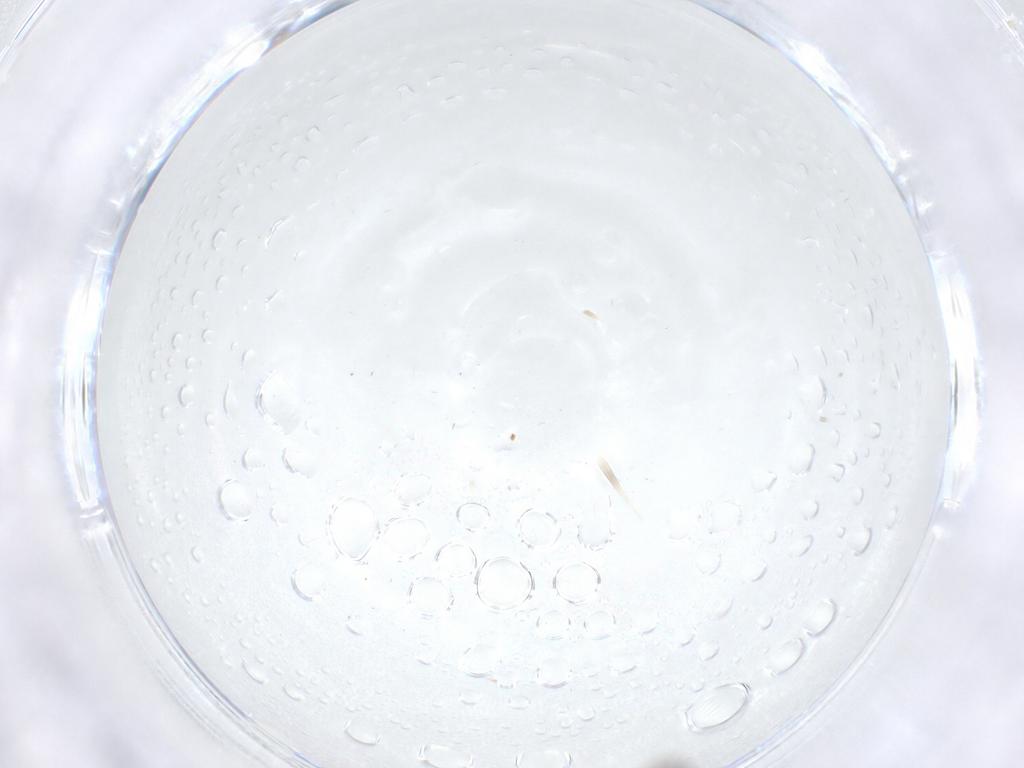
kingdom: Animalia
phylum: Arthropoda
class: Insecta
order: Diptera
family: Limoniidae
